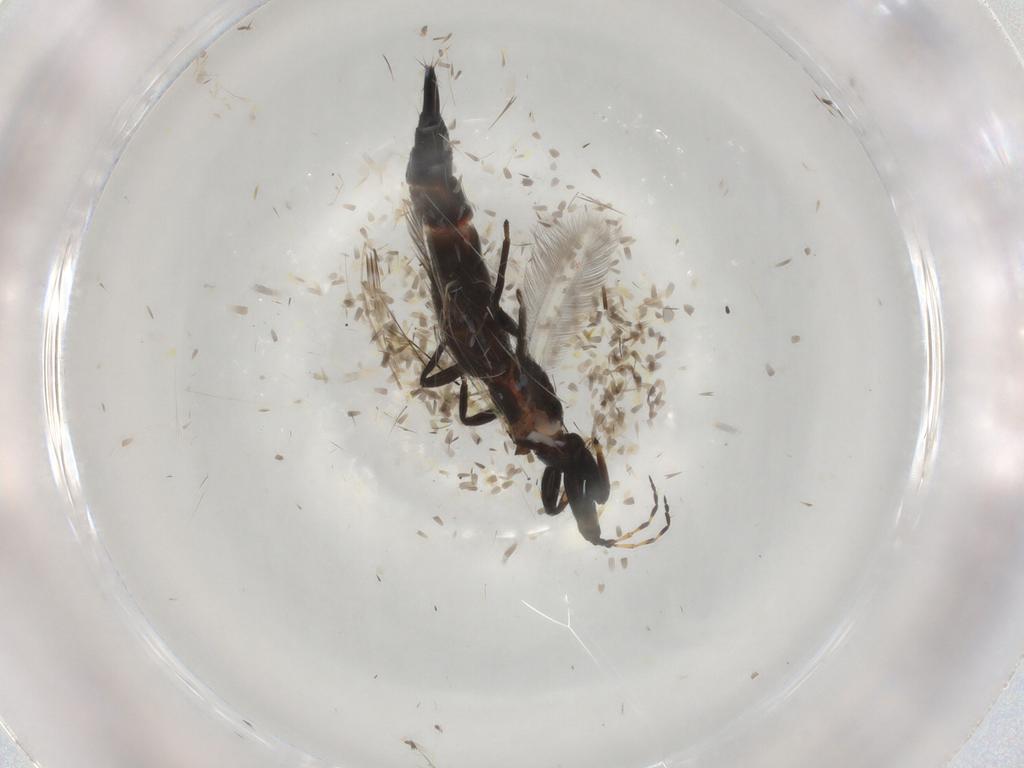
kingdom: Animalia
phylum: Arthropoda
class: Insecta
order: Thysanoptera
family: Phlaeothripidae
